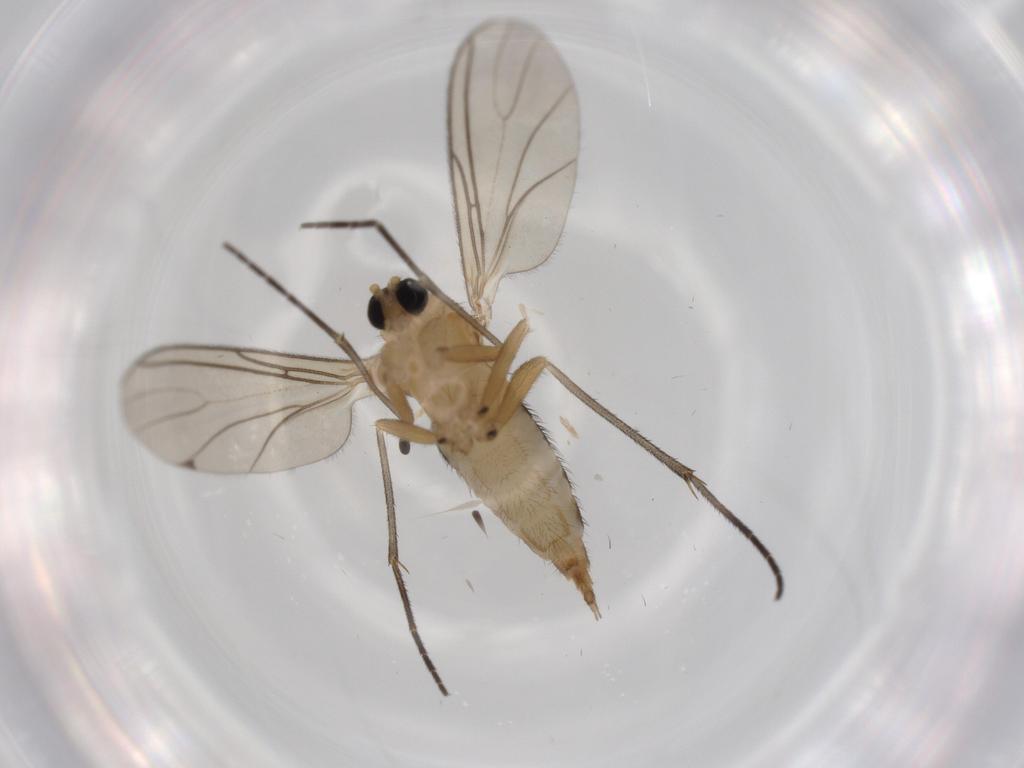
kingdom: Animalia
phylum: Arthropoda
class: Insecta
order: Diptera
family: Sciaridae
